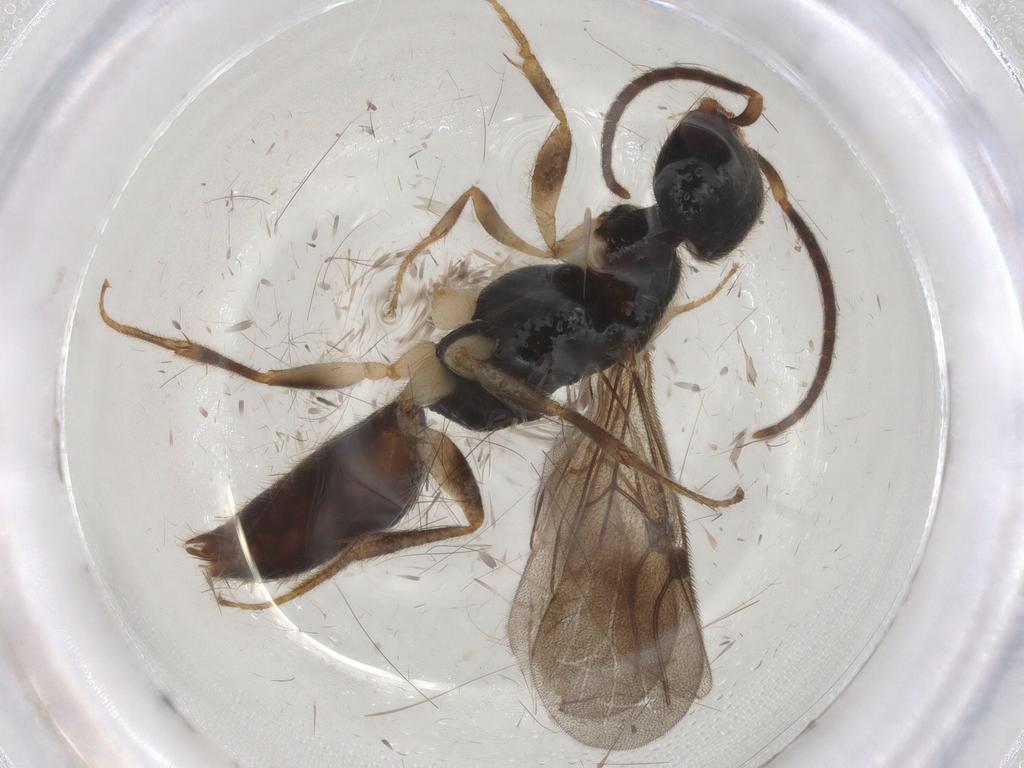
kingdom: Animalia
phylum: Arthropoda
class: Insecta
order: Hymenoptera
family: Bethylidae
